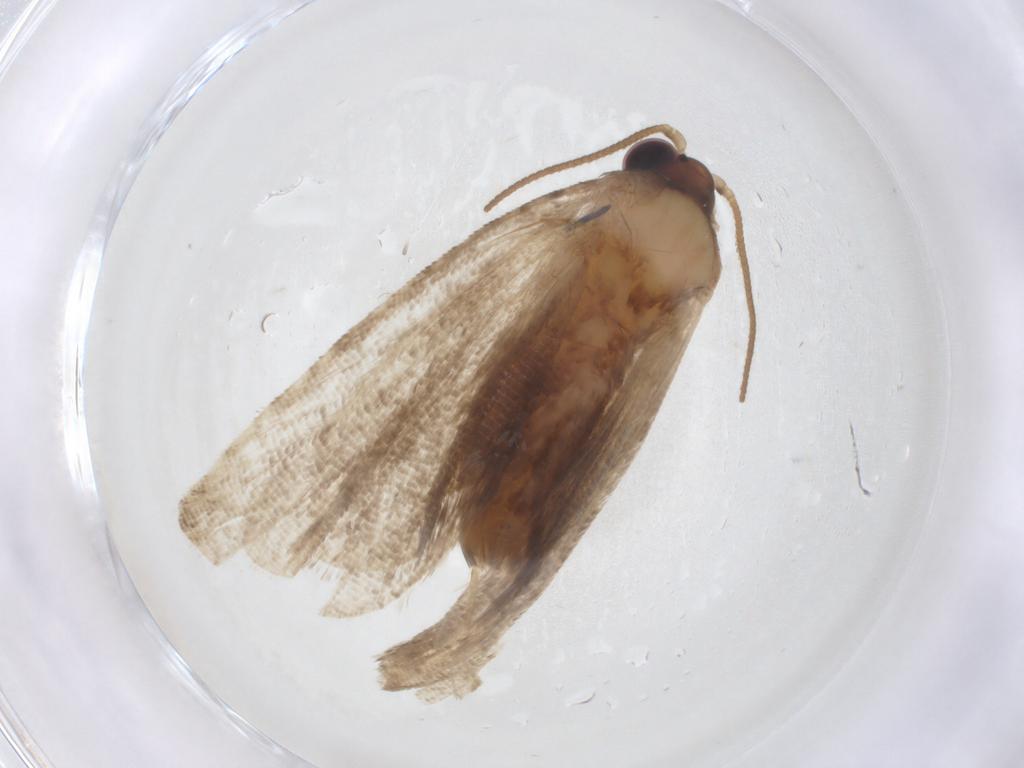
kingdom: Animalia
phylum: Arthropoda
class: Insecta
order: Lepidoptera
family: Tortricidae
